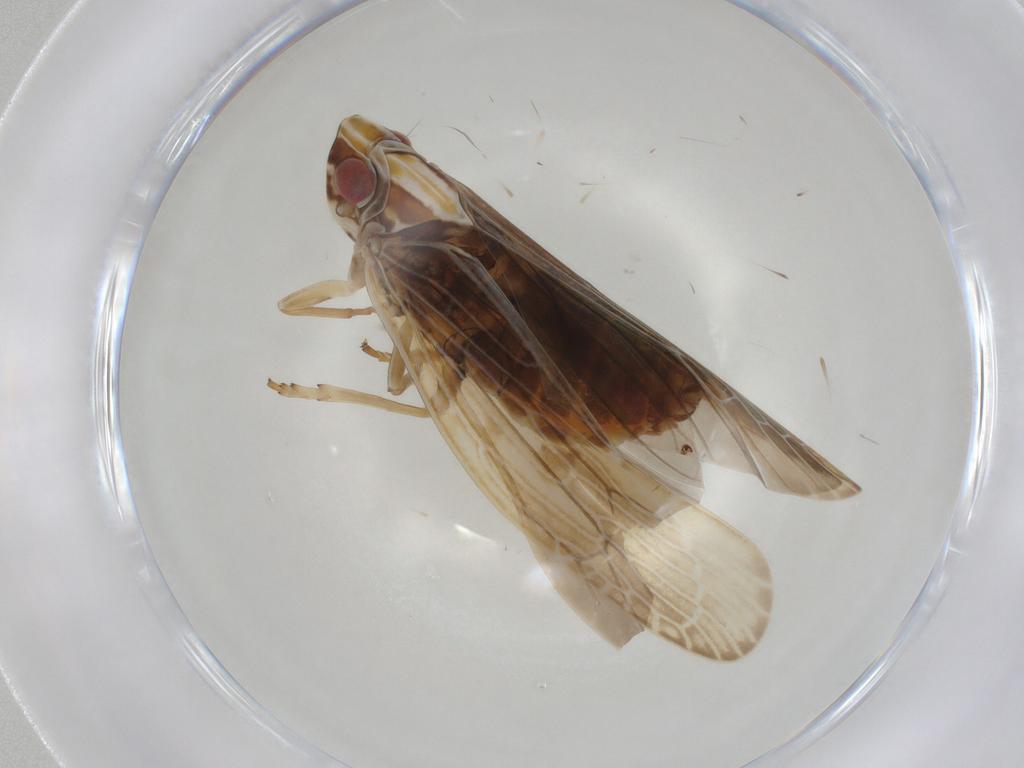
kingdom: Animalia
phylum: Arthropoda
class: Insecta
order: Hemiptera
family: Achilidae
